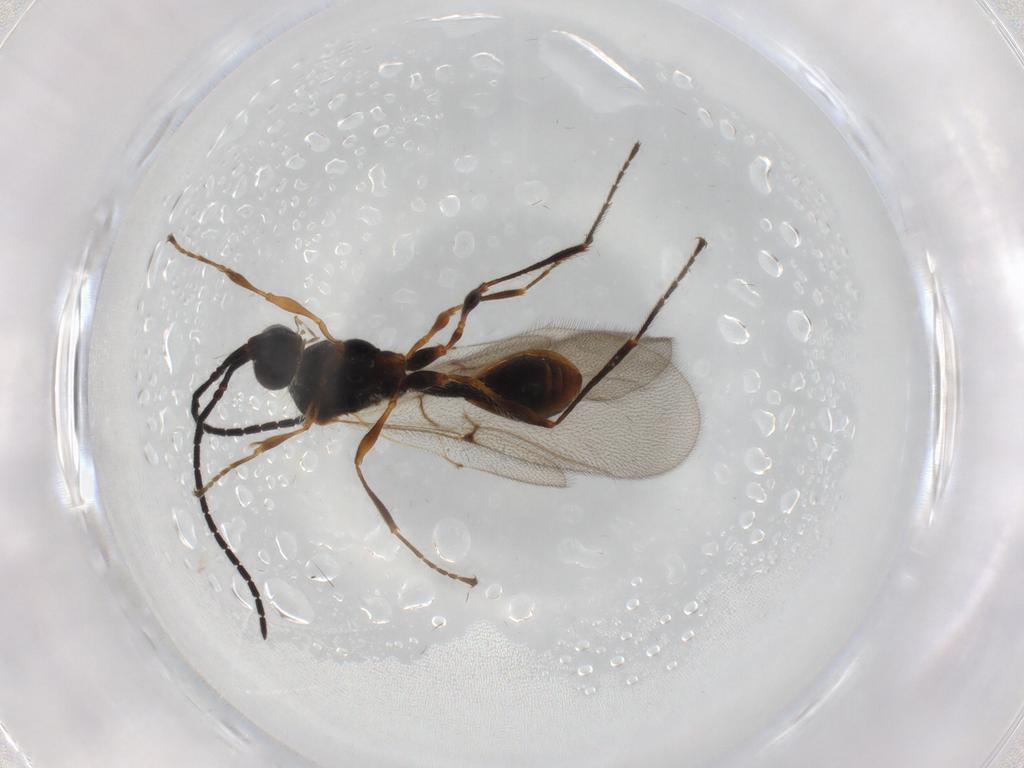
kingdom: Animalia
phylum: Arthropoda
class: Insecta
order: Hymenoptera
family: Diapriidae
